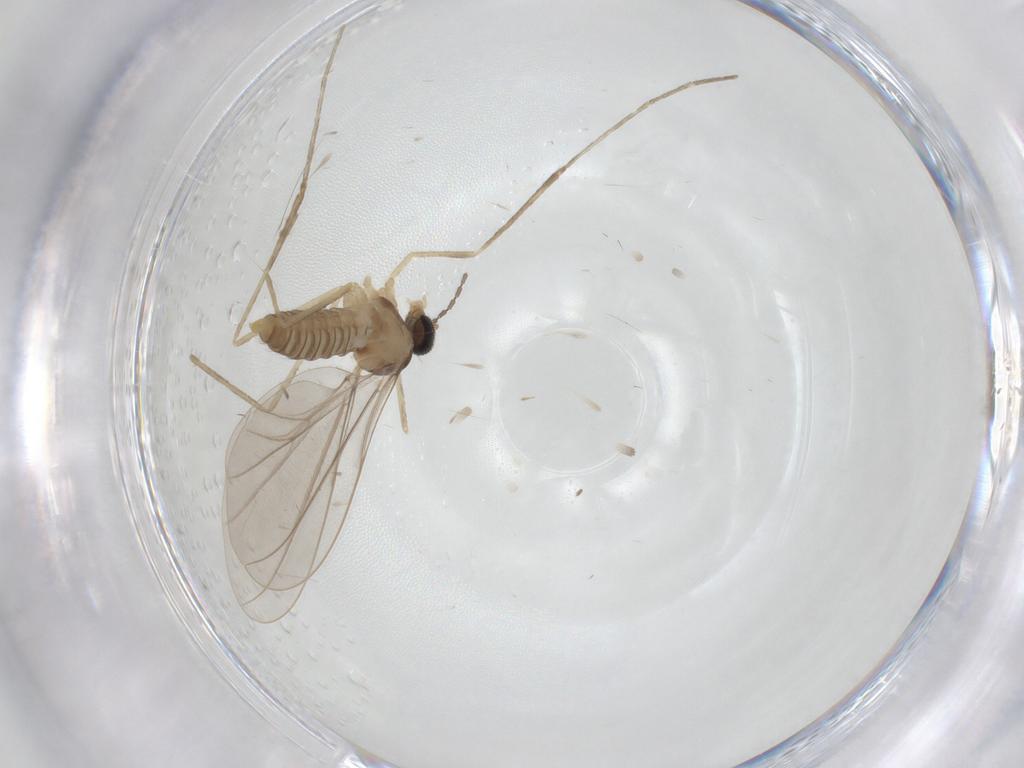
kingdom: Animalia
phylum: Arthropoda
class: Insecta
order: Diptera
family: Cecidomyiidae
